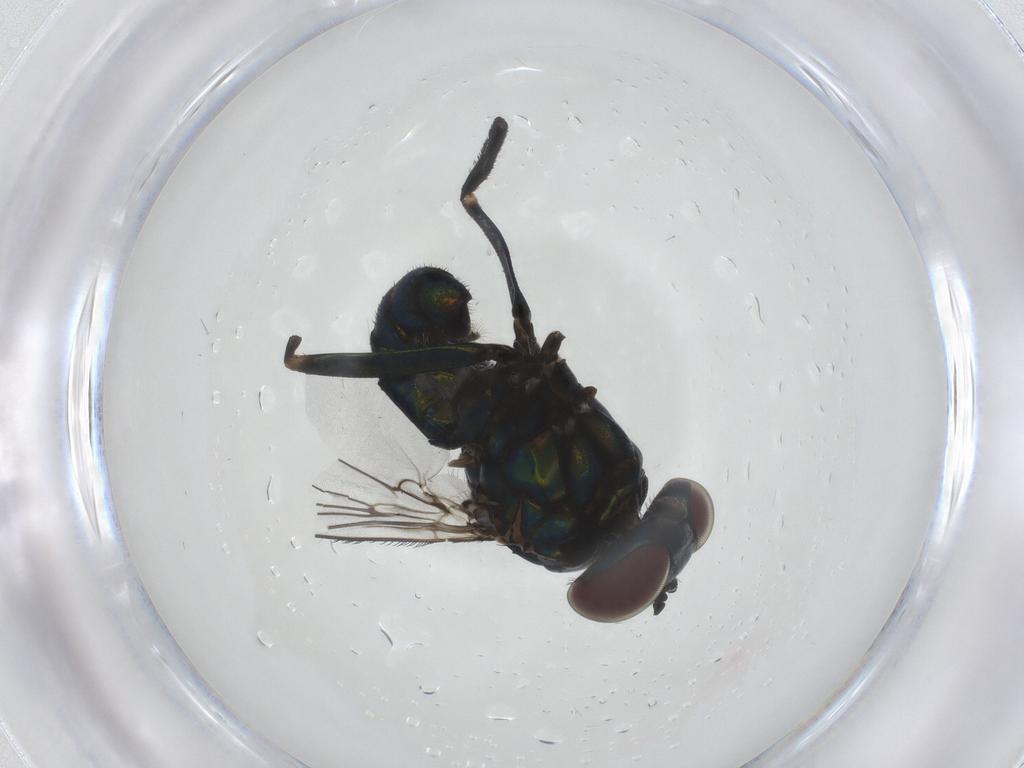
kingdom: Animalia
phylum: Arthropoda
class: Insecta
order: Diptera
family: Dolichopodidae
